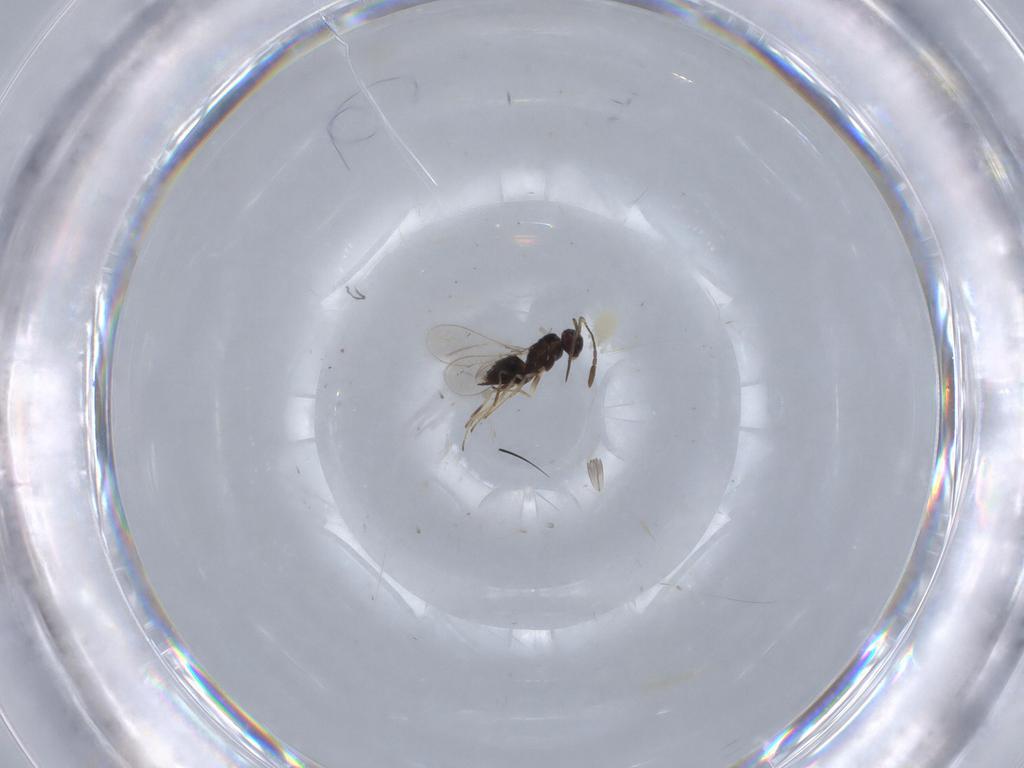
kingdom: Animalia
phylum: Arthropoda
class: Insecta
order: Hymenoptera
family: Mymaridae
